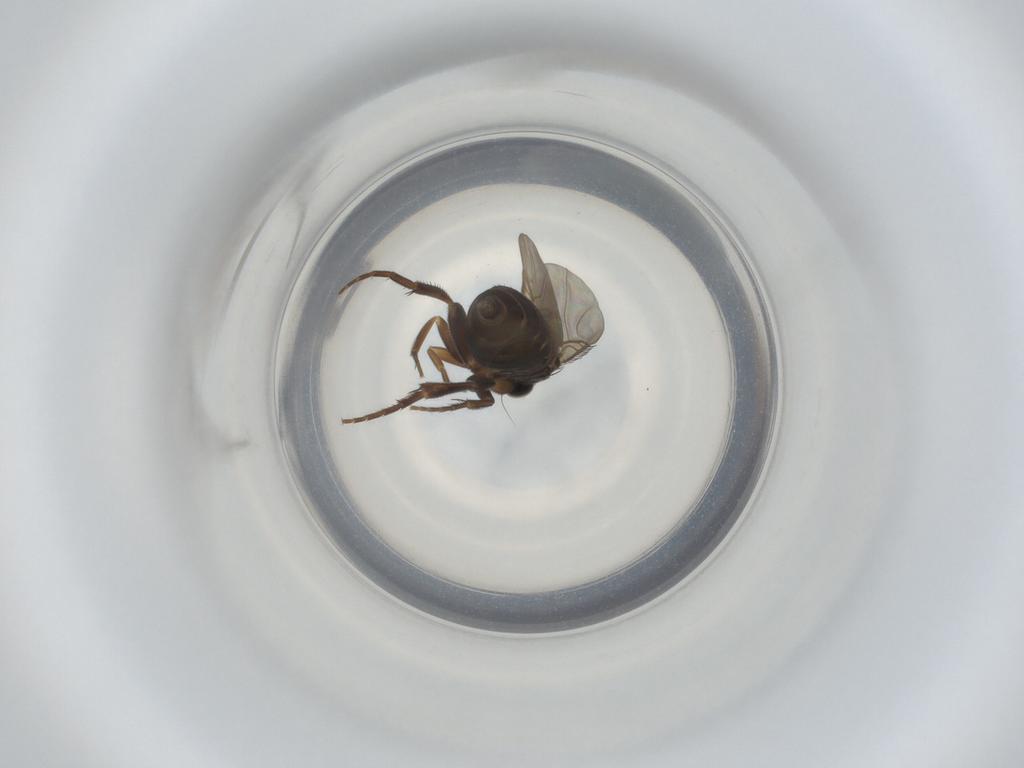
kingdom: Animalia
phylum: Arthropoda
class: Insecta
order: Diptera
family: Phoridae
